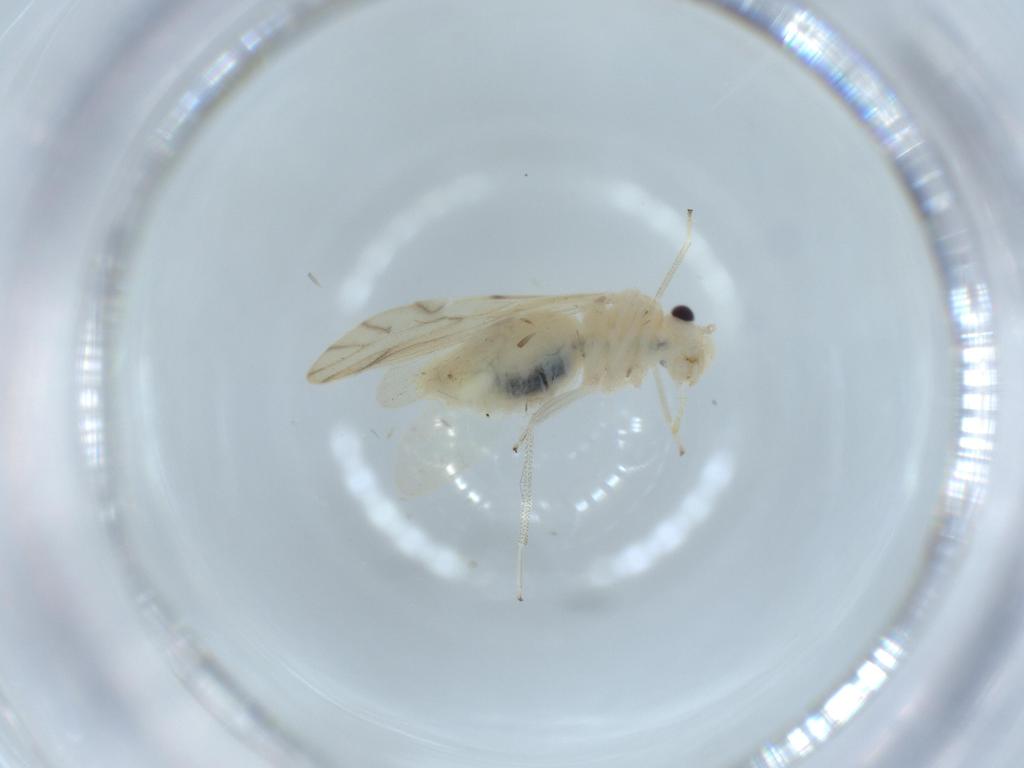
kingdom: Animalia
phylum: Arthropoda
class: Insecta
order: Psocodea
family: Caeciliusidae
